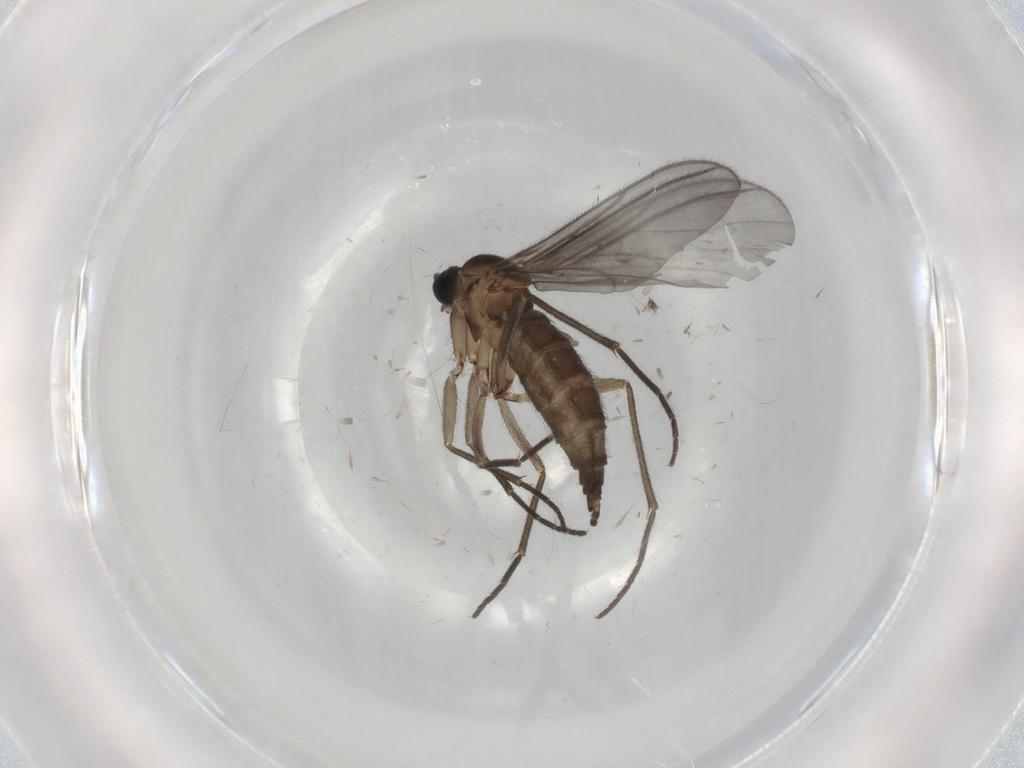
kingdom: Animalia
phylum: Arthropoda
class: Insecta
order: Diptera
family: Sciaridae
